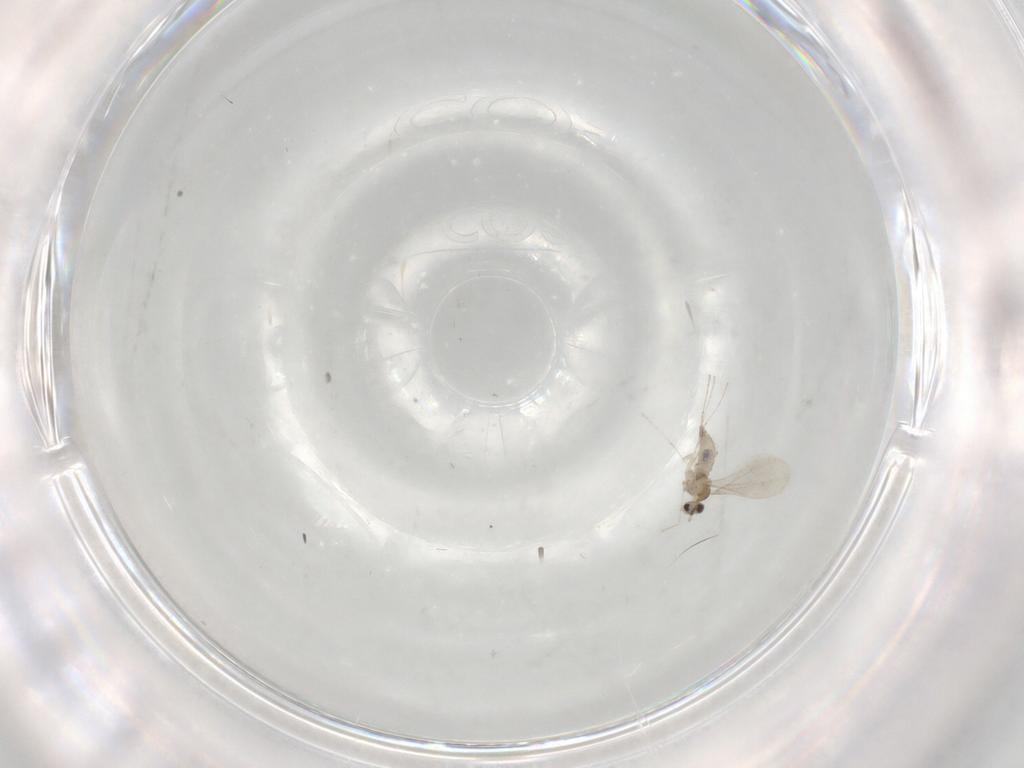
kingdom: Animalia
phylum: Arthropoda
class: Insecta
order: Diptera
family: Cecidomyiidae
